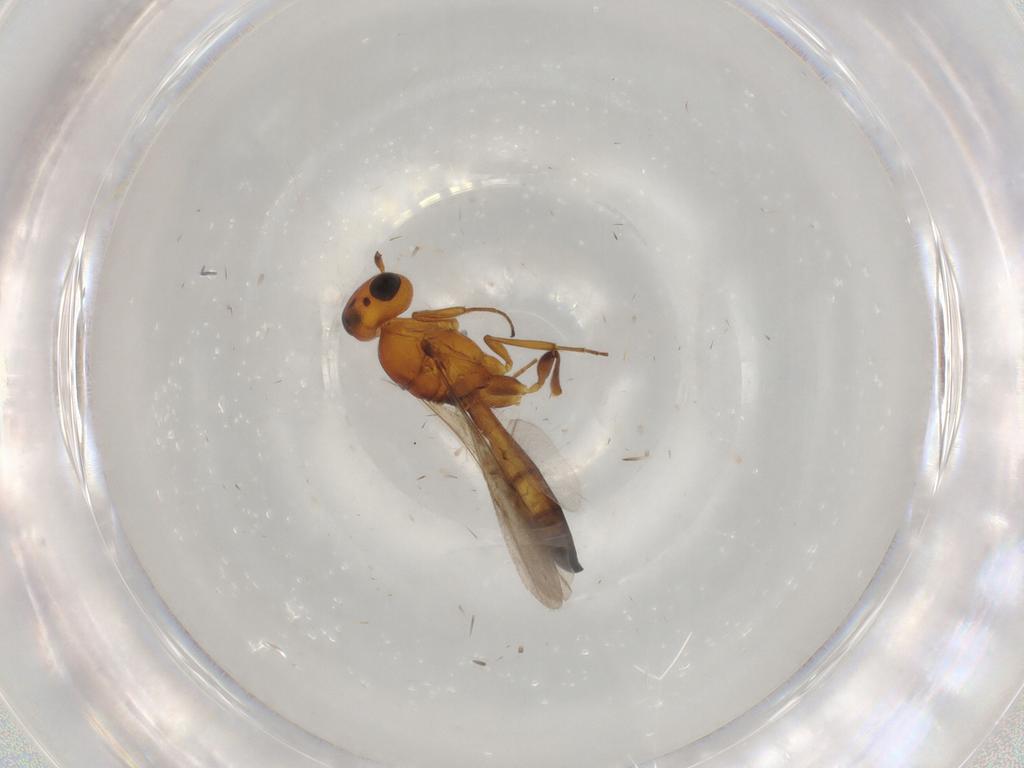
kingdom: Animalia
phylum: Arthropoda
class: Insecta
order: Hymenoptera
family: Scelionidae
